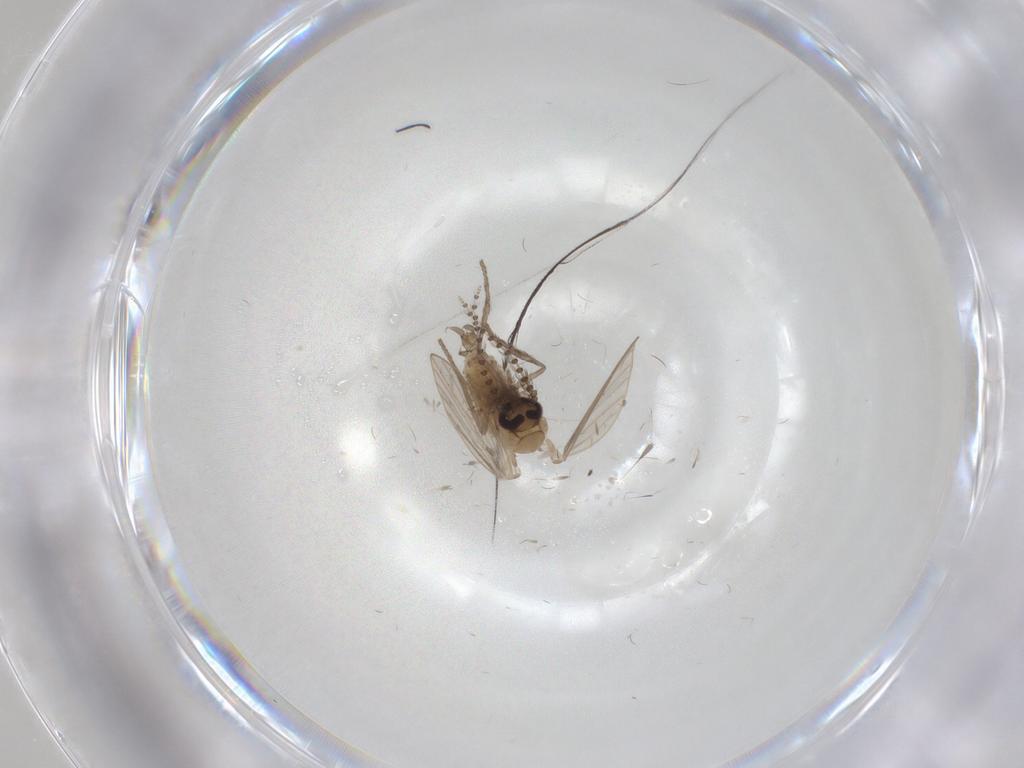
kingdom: Animalia
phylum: Arthropoda
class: Insecta
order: Diptera
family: Psychodidae
